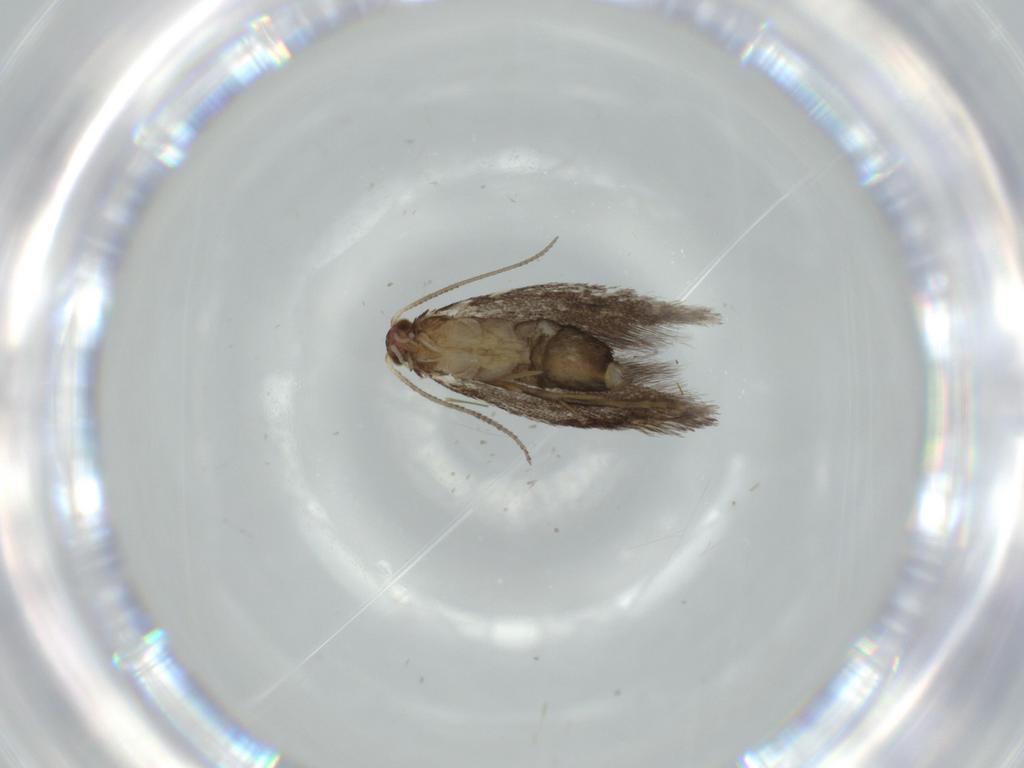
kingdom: Animalia
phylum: Arthropoda
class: Insecta
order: Lepidoptera
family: Tineidae
